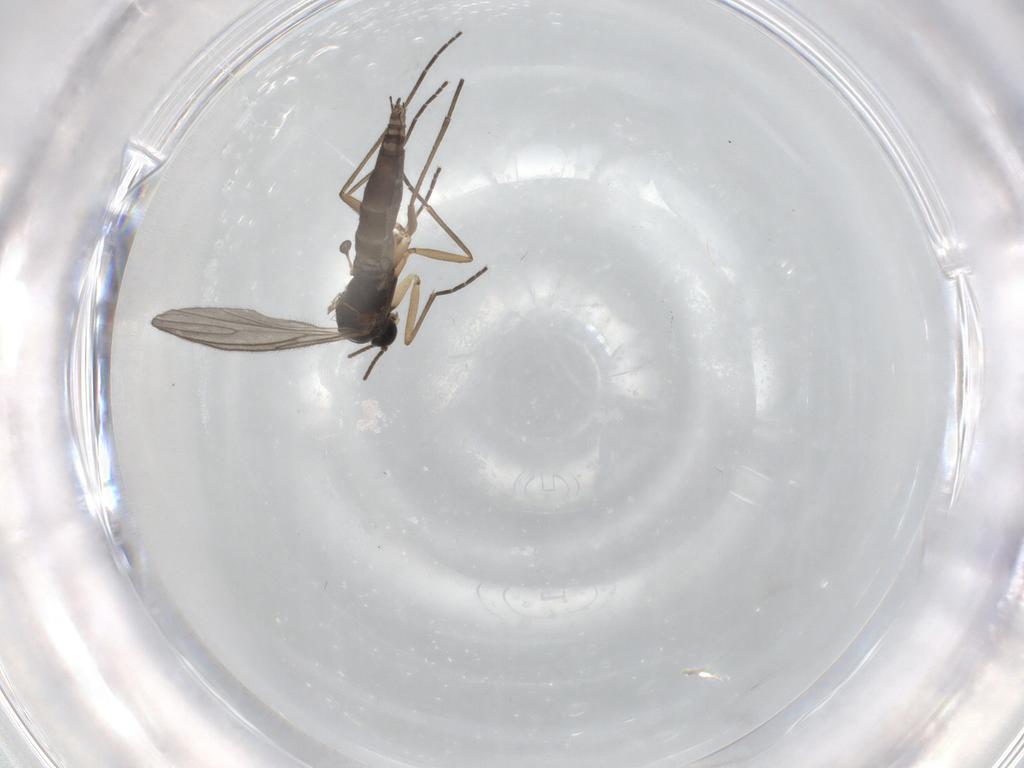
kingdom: Animalia
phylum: Arthropoda
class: Insecta
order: Diptera
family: Sciaridae
